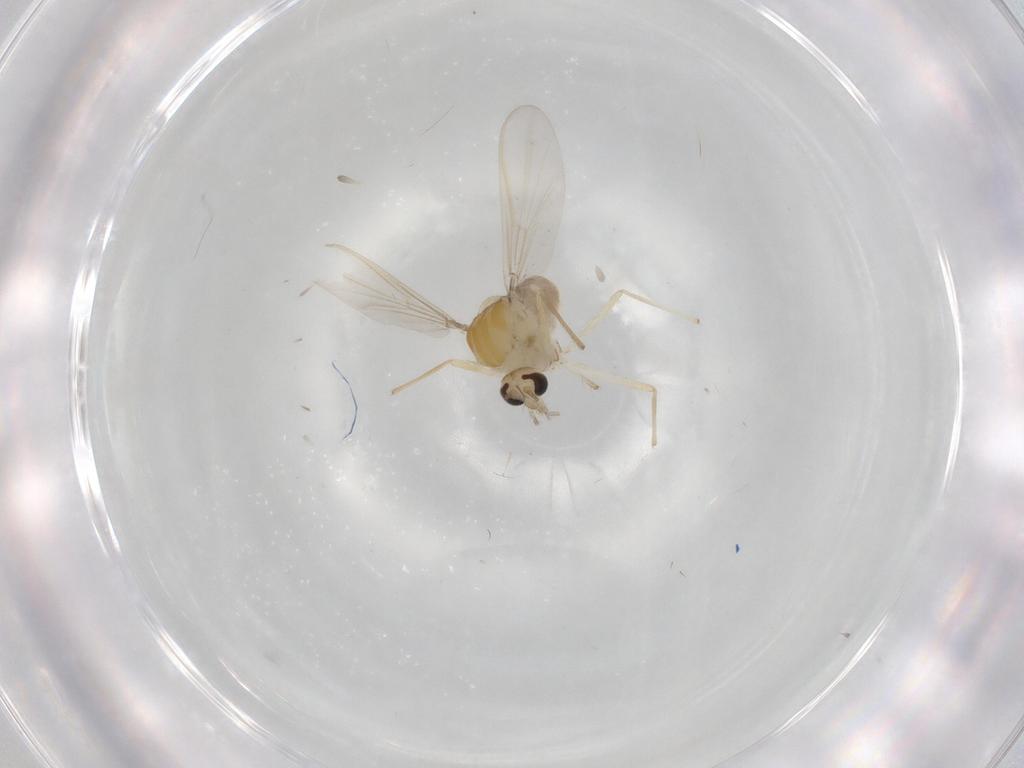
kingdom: Animalia
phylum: Arthropoda
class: Insecta
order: Diptera
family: Chironomidae
